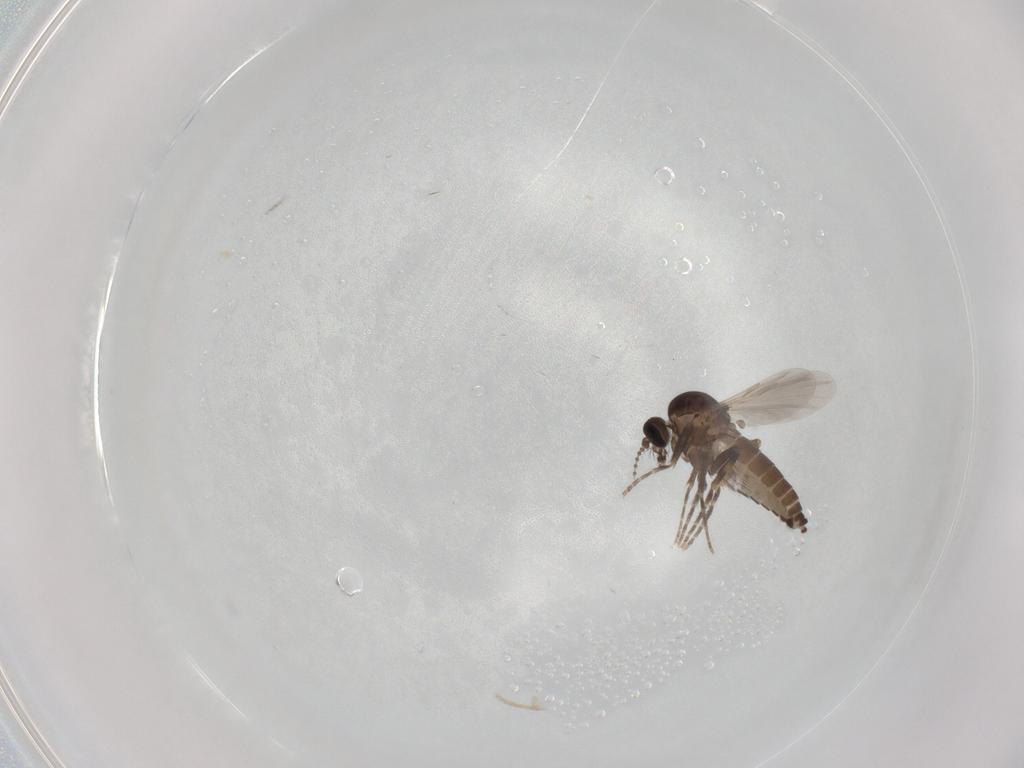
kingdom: Animalia
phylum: Arthropoda
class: Insecta
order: Diptera
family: Ceratopogonidae
